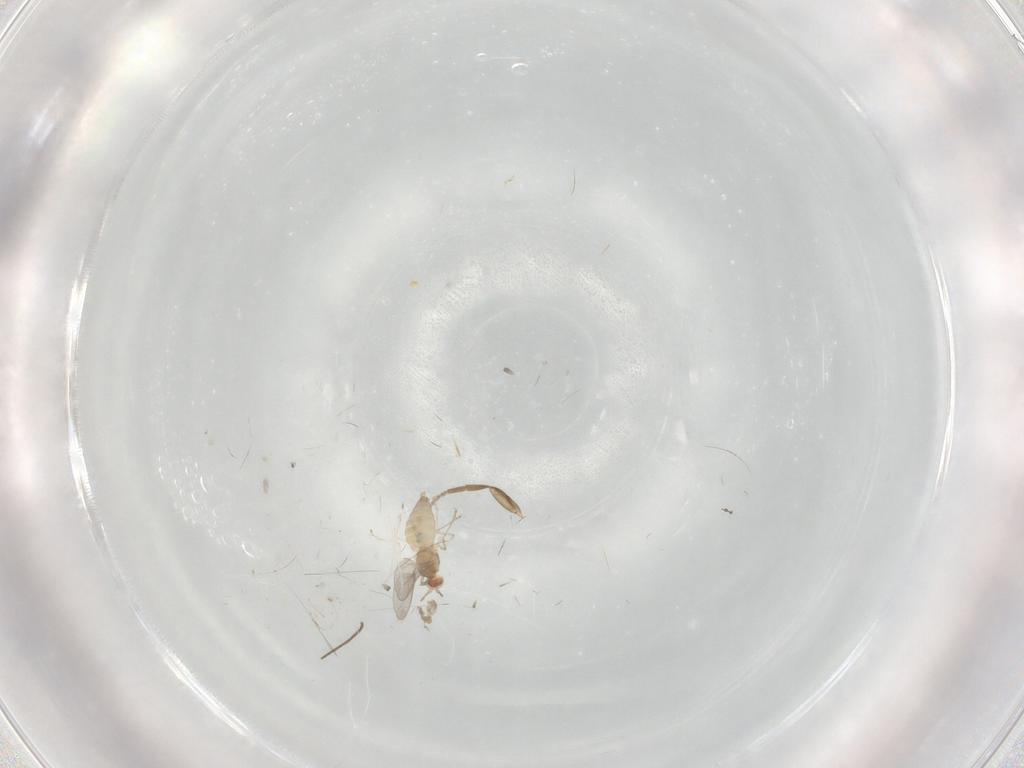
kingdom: Animalia
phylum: Arthropoda
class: Insecta
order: Diptera
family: Chironomidae
